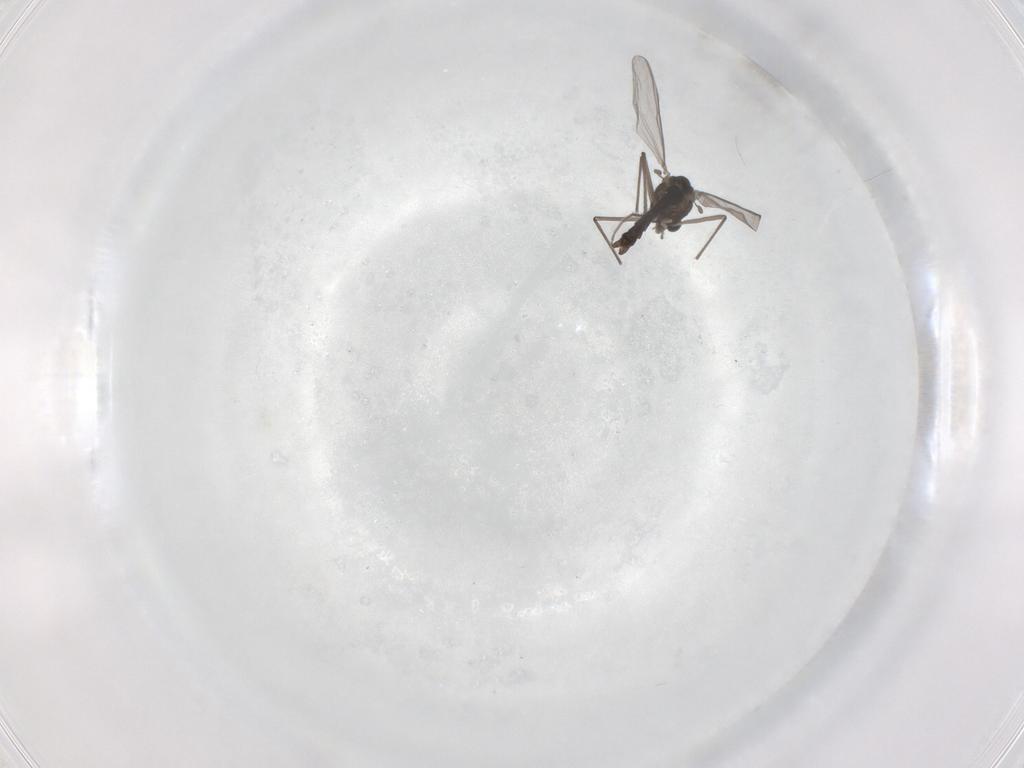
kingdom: Animalia
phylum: Arthropoda
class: Insecta
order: Diptera
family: Chironomidae
